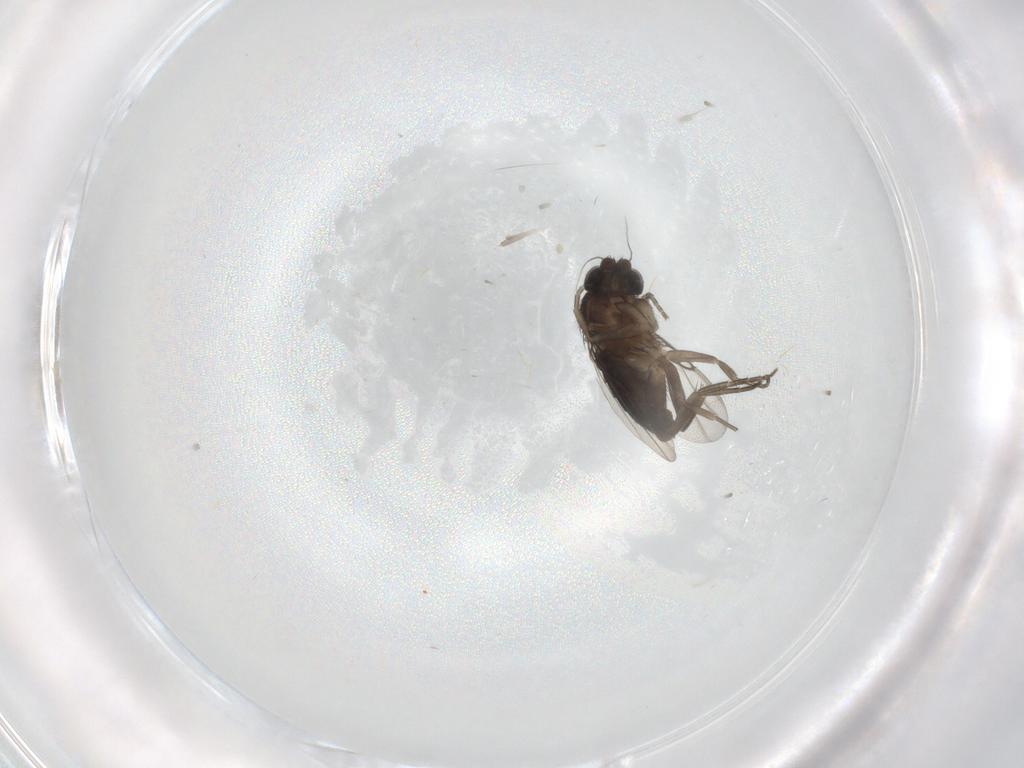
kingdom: Animalia
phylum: Arthropoda
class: Insecta
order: Diptera
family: Phoridae
